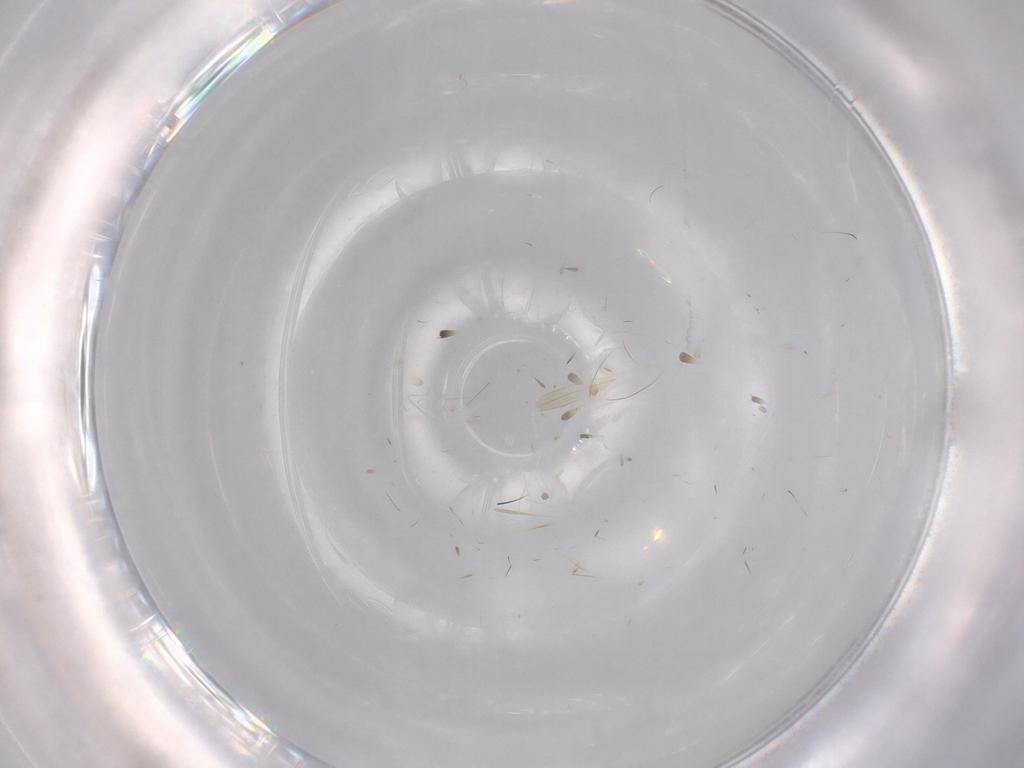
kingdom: Animalia
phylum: Arthropoda
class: Insecta
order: Diptera
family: Muscidae
